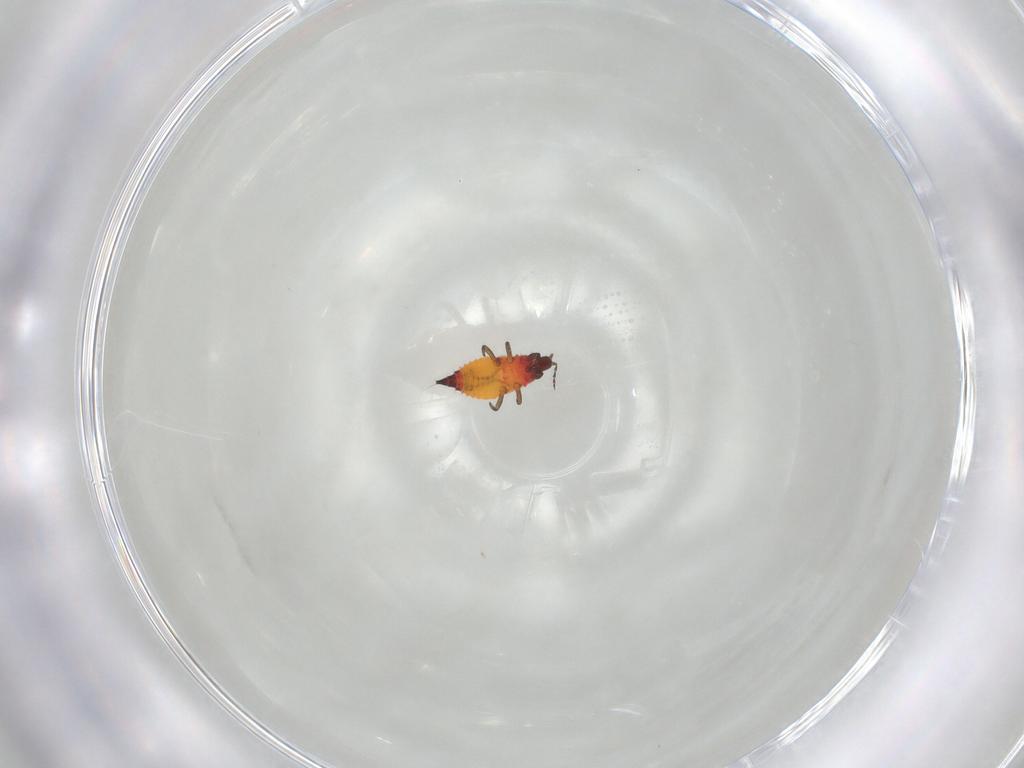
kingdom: Animalia
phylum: Arthropoda
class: Insecta
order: Thysanoptera
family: Phlaeothripidae
